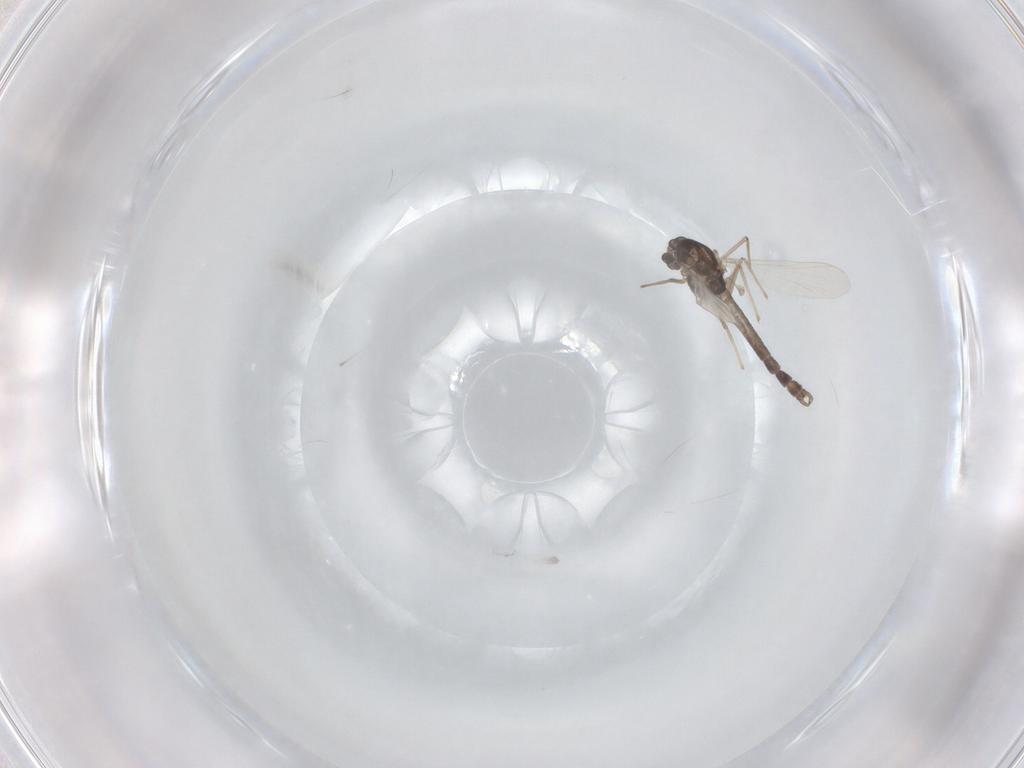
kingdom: Animalia
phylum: Arthropoda
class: Insecta
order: Diptera
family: Chironomidae
